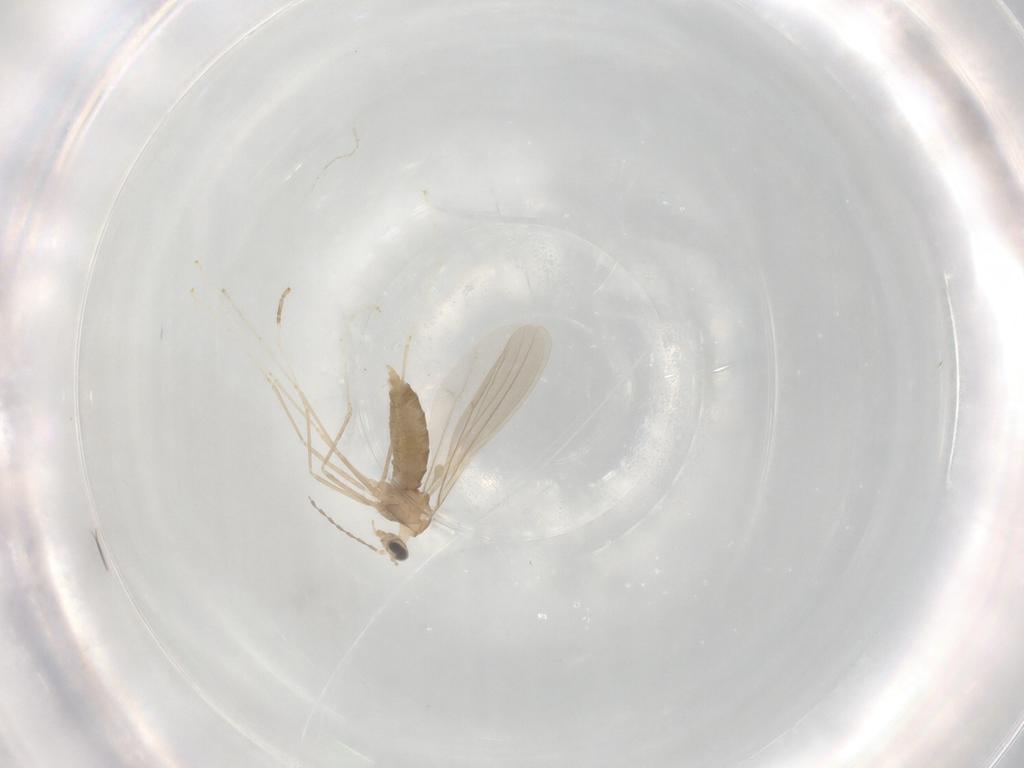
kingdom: Animalia
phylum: Arthropoda
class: Insecta
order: Diptera
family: Cecidomyiidae
